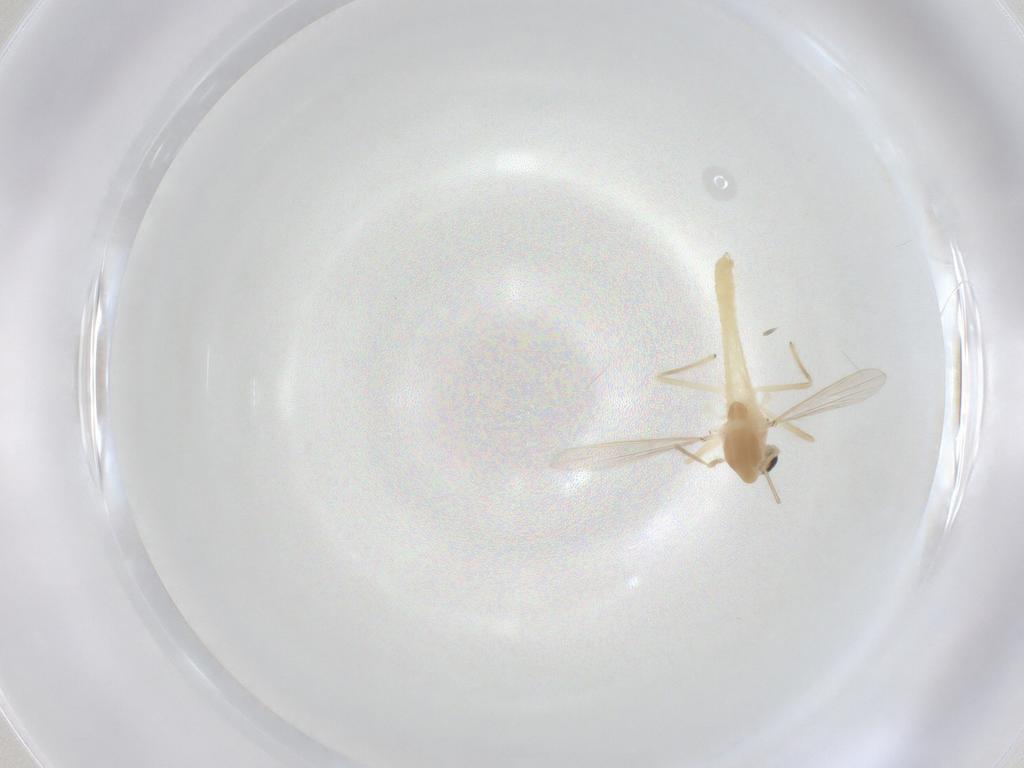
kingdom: Animalia
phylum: Arthropoda
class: Insecta
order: Diptera
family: Chironomidae
